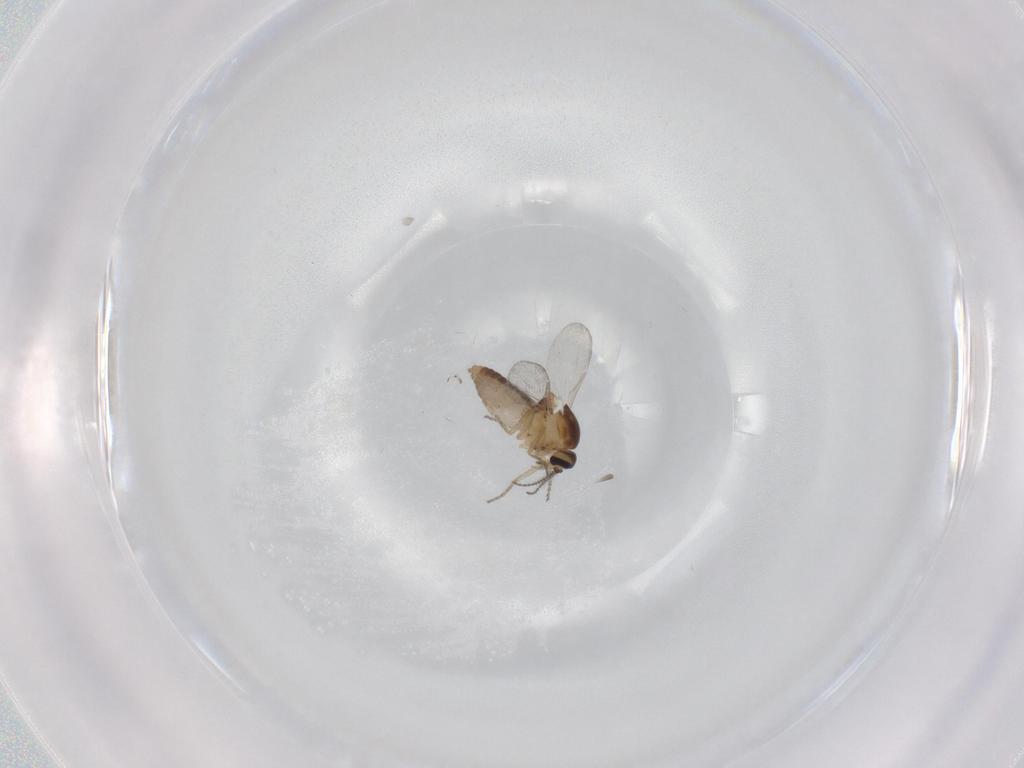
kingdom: Animalia
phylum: Arthropoda
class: Insecta
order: Diptera
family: Ceratopogonidae
